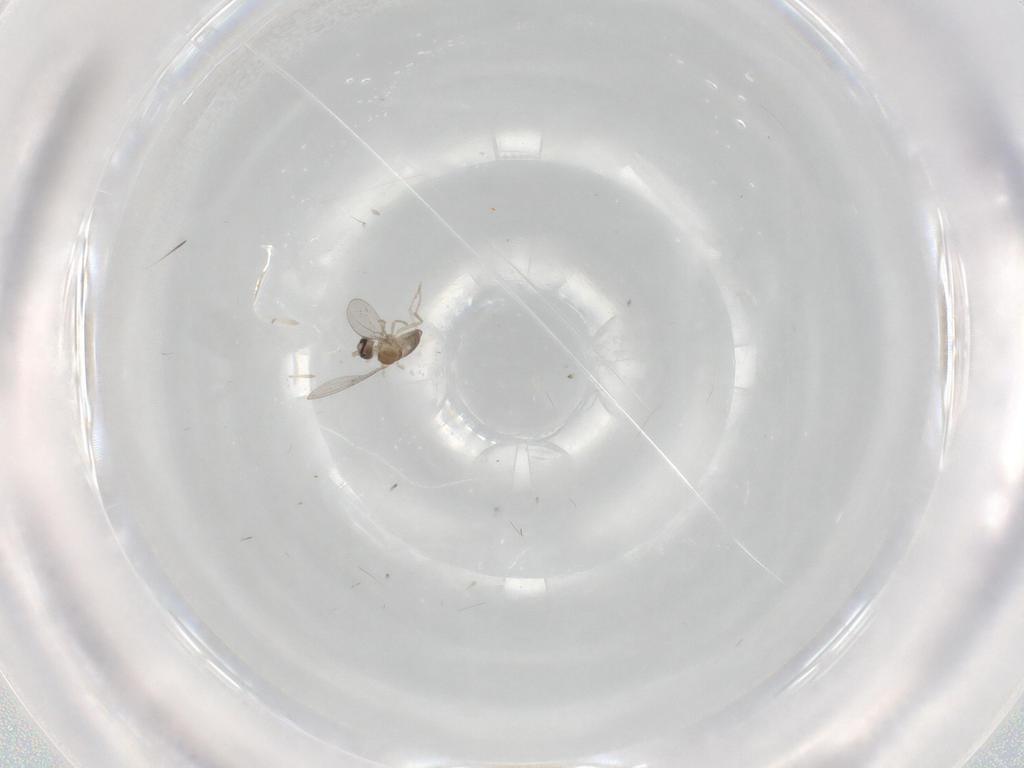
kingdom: Animalia
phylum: Arthropoda
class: Insecta
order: Diptera
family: Cecidomyiidae
